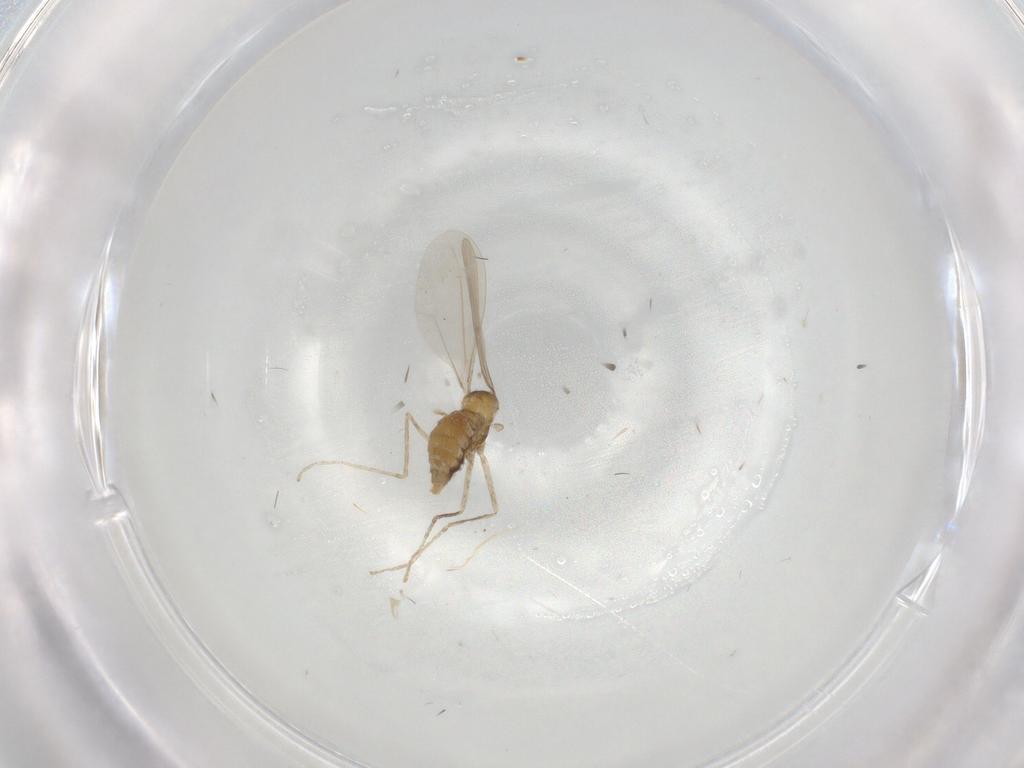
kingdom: Animalia
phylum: Arthropoda
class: Insecta
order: Diptera
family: Cecidomyiidae
